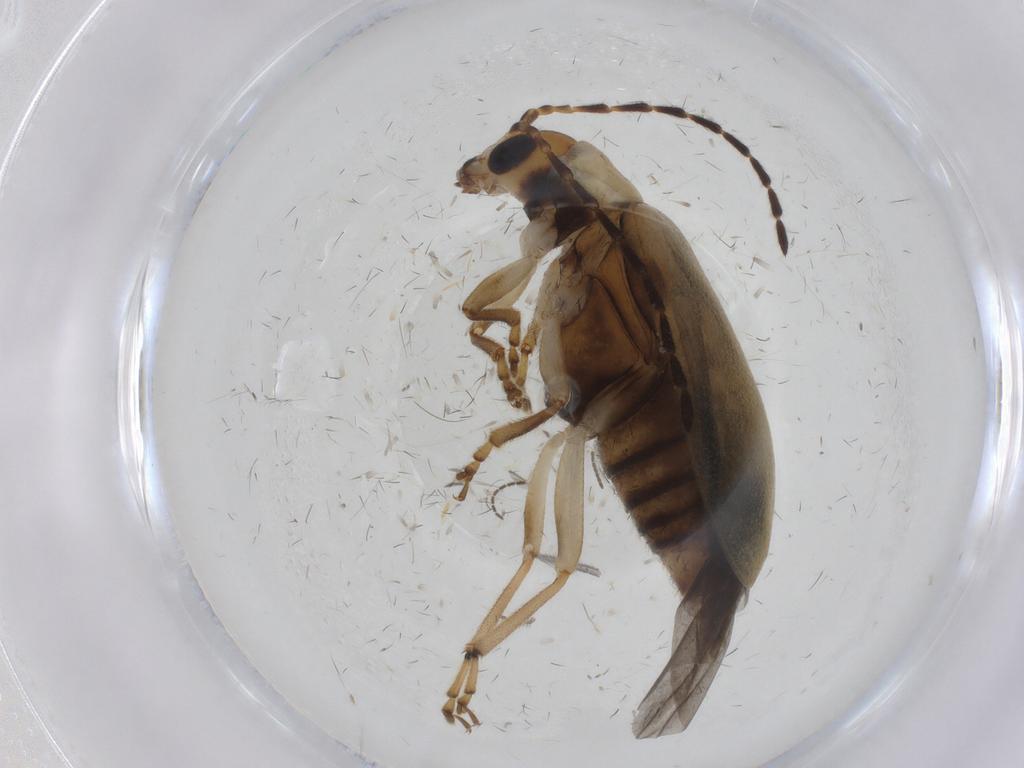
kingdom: Animalia
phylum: Arthropoda
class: Insecta
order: Coleoptera
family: Chrysomelidae
